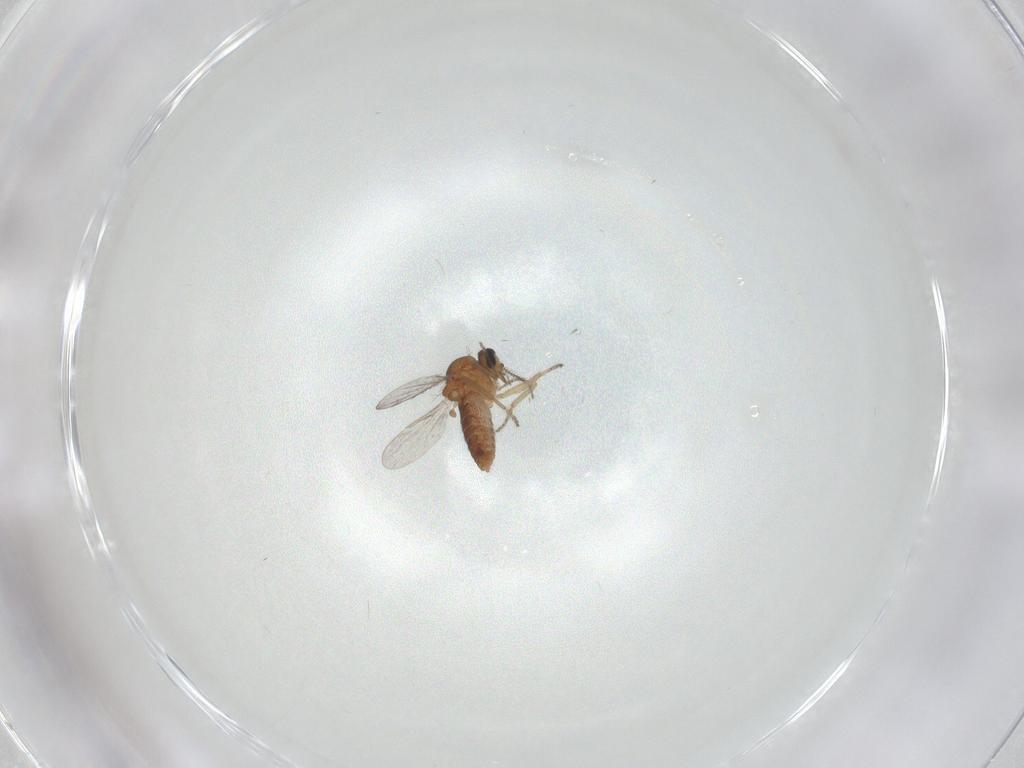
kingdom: Animalia
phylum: Arthropoda
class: Insecta
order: Diptera
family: Ceratopogonidae
